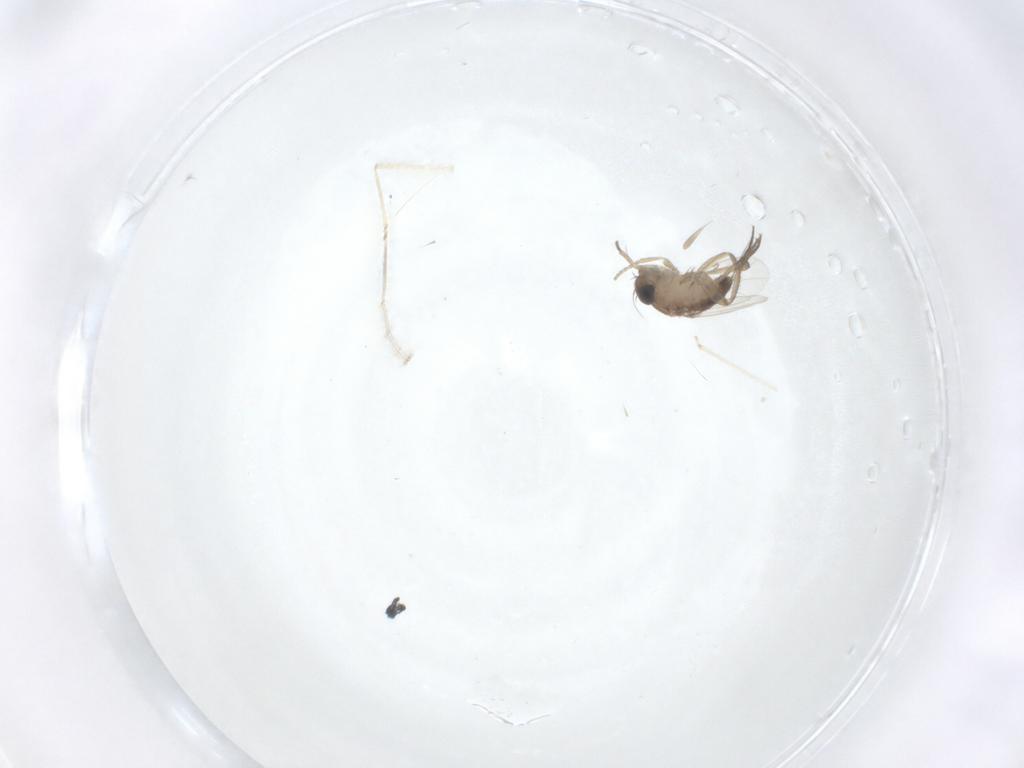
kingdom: Animalia
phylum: Arthropoda
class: Insecta
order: Diptera
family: Phoridae
